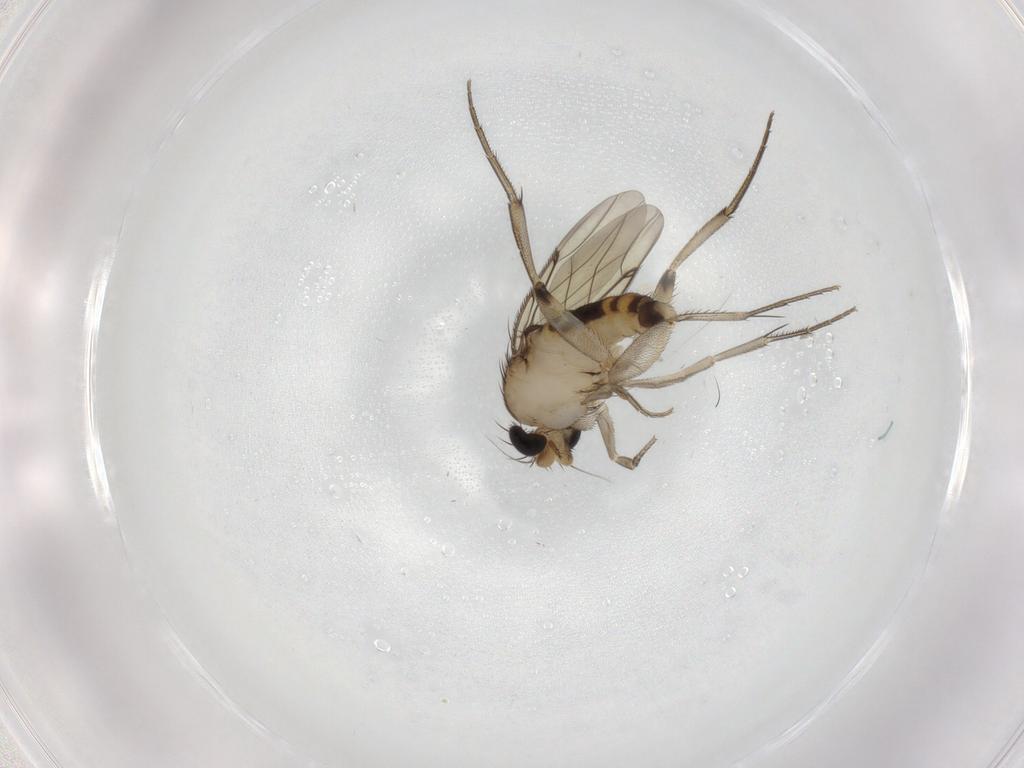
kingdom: Animalia
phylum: Arthropoda
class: Insecta
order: Diptera
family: Phoridae
